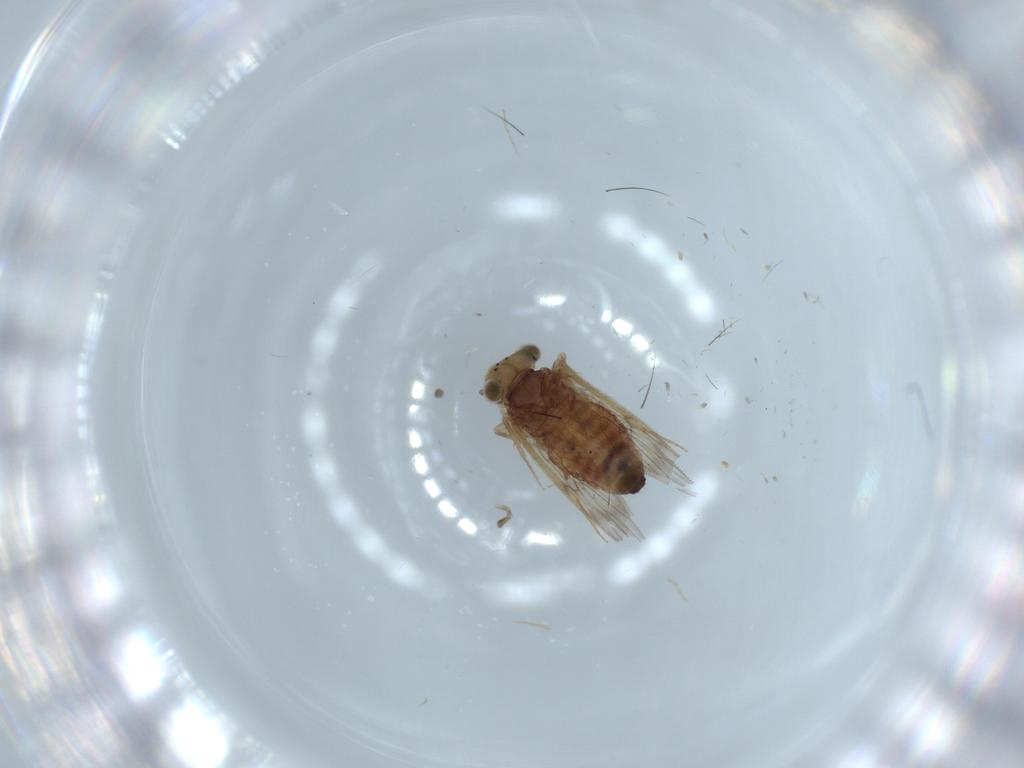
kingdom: Animalia
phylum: Arthropoda
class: Insecta
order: Psocodea
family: Lepidopsocidae
